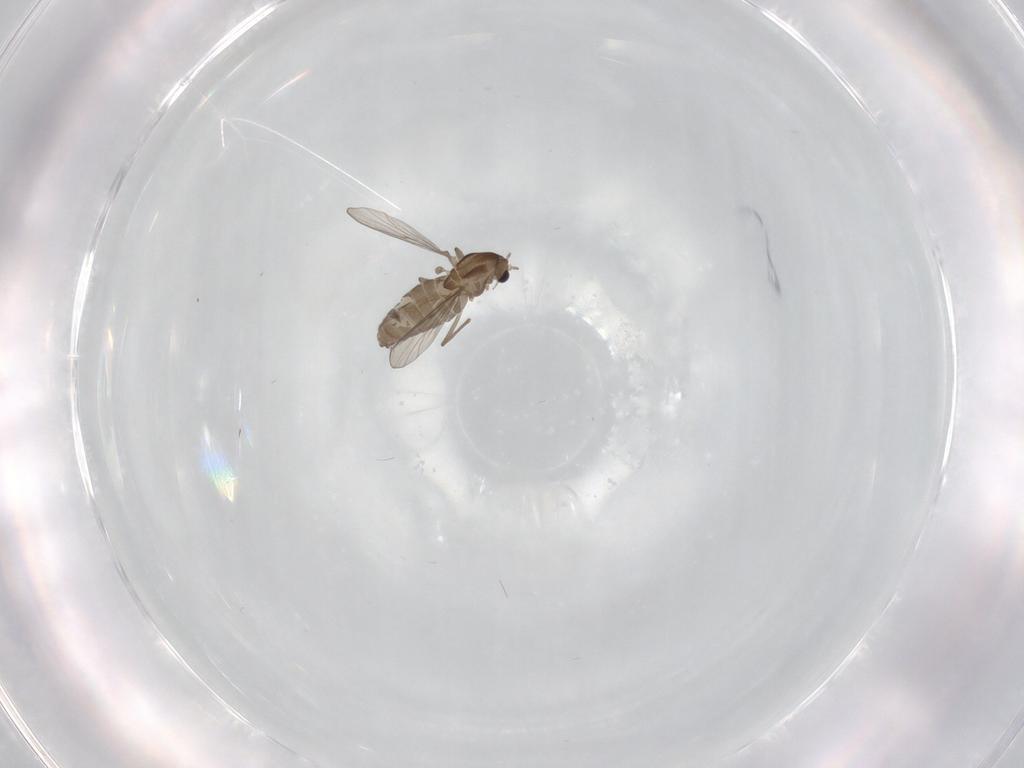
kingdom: Animalia
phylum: Arthropoda
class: Insecta
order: Diptera
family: Chironomidae
